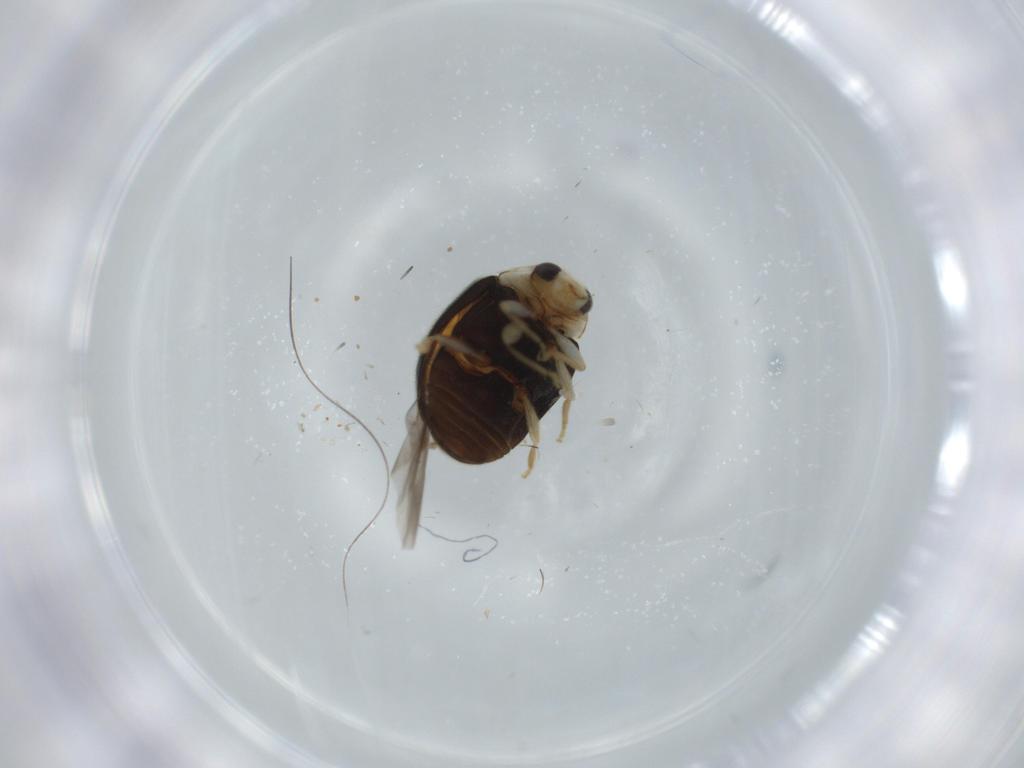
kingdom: Animalia
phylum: Arthropoda
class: Insecta
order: Coleoptera
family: Coccinellidae
